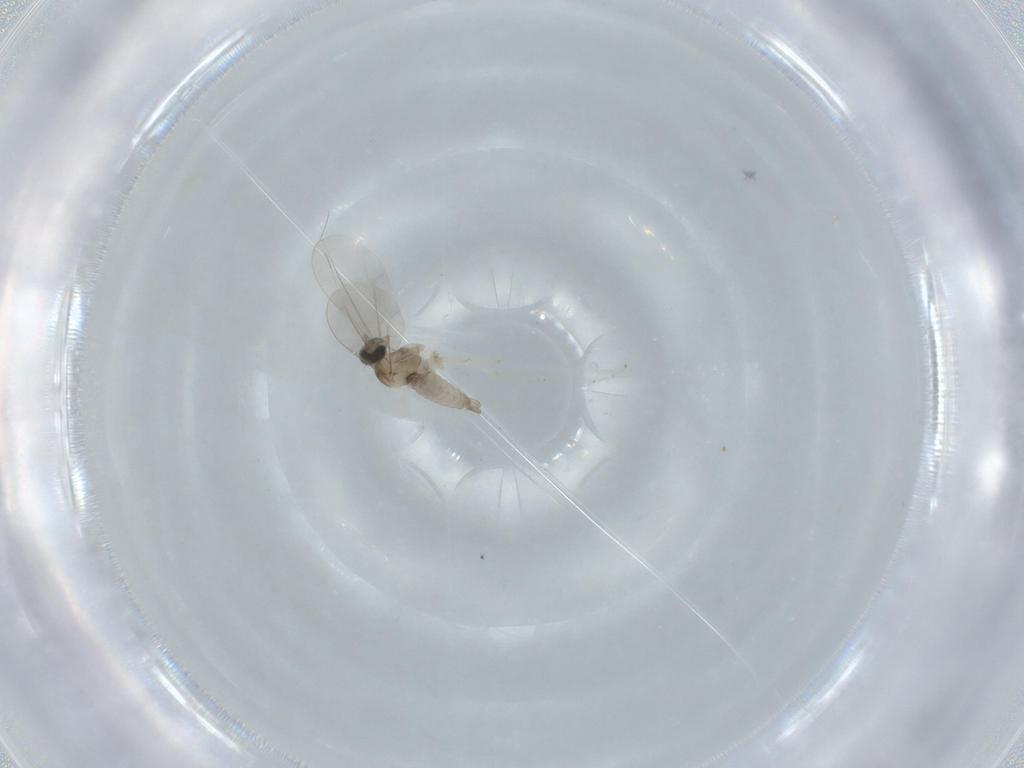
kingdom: Animalia
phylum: Arthropoda
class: Insecta
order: Diptera
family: Cecidomyiidae
